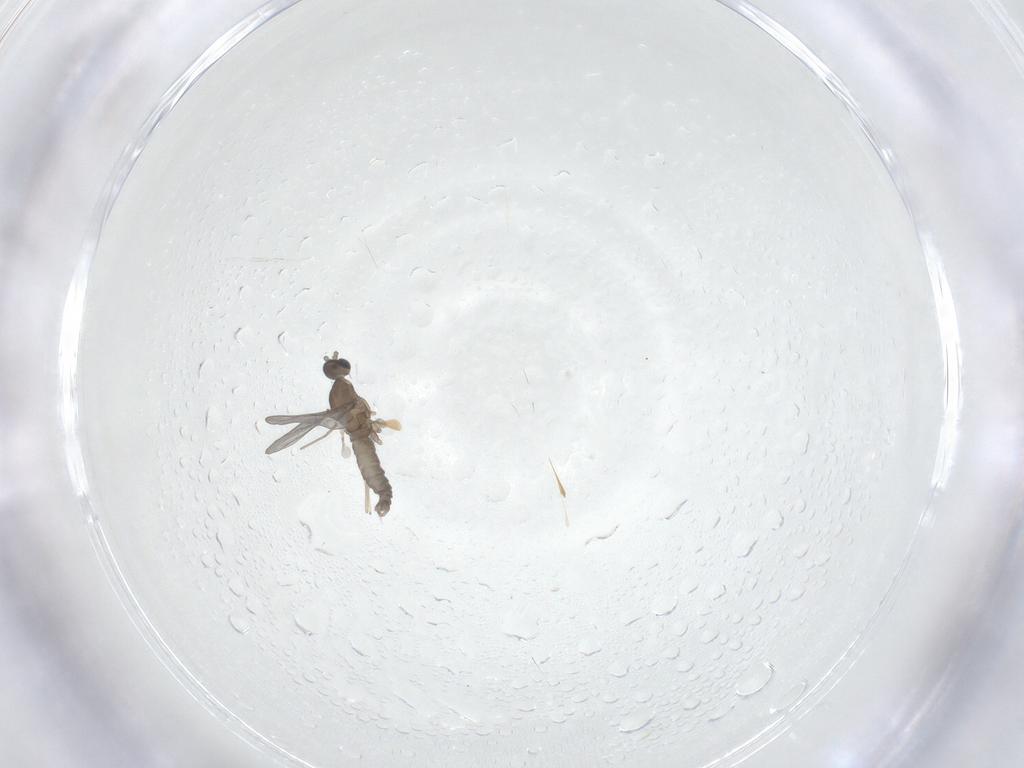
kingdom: Animalia
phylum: Arthropoda
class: Insecta
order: Diptera
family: Cecidomyiidae
